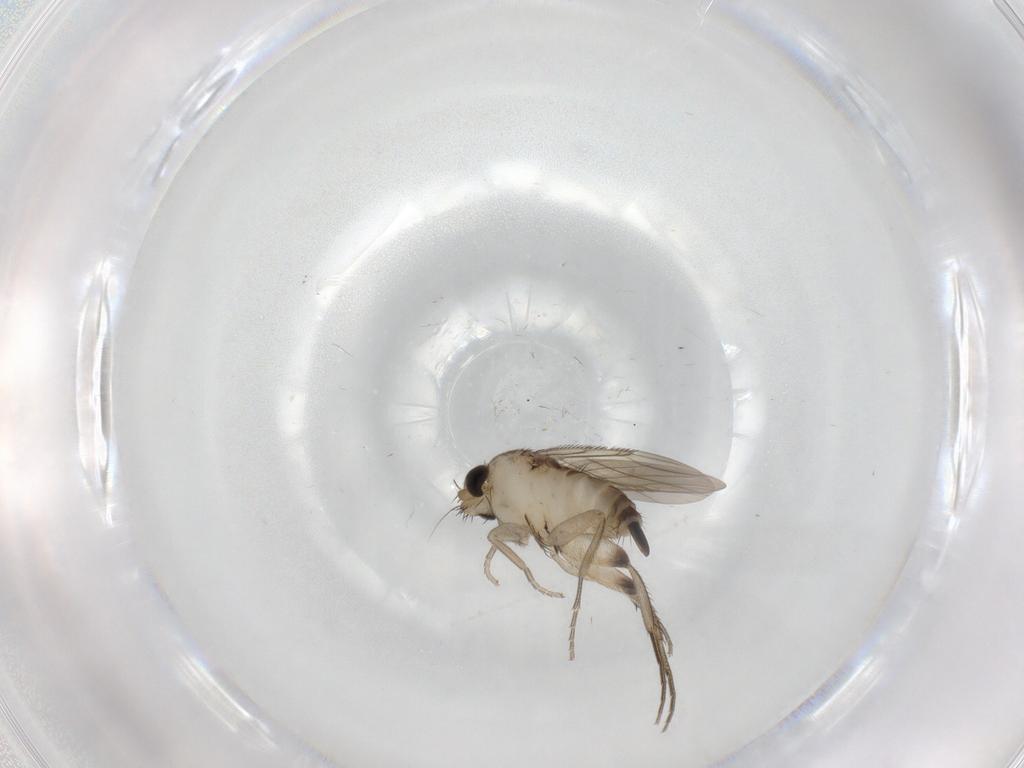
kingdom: Animalia
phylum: Arthropoda
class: Insecta
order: Diptera
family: Phoridae
